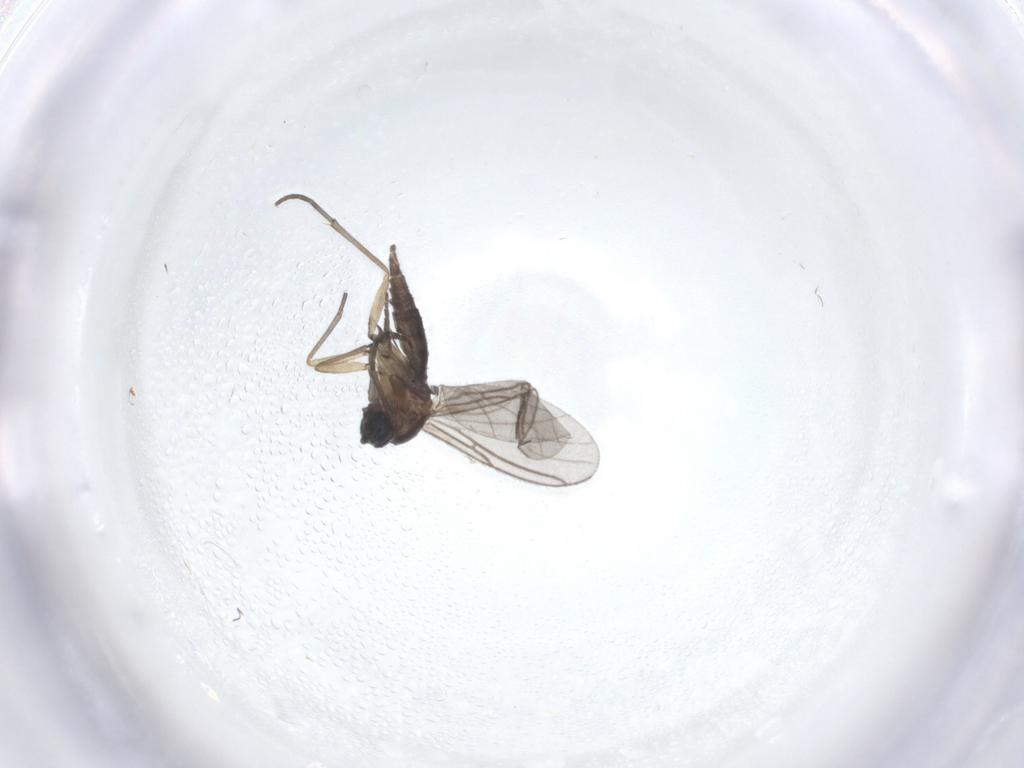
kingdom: Animalia
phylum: Arthropoda
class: Insecta
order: Diptera
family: Sciaridae
